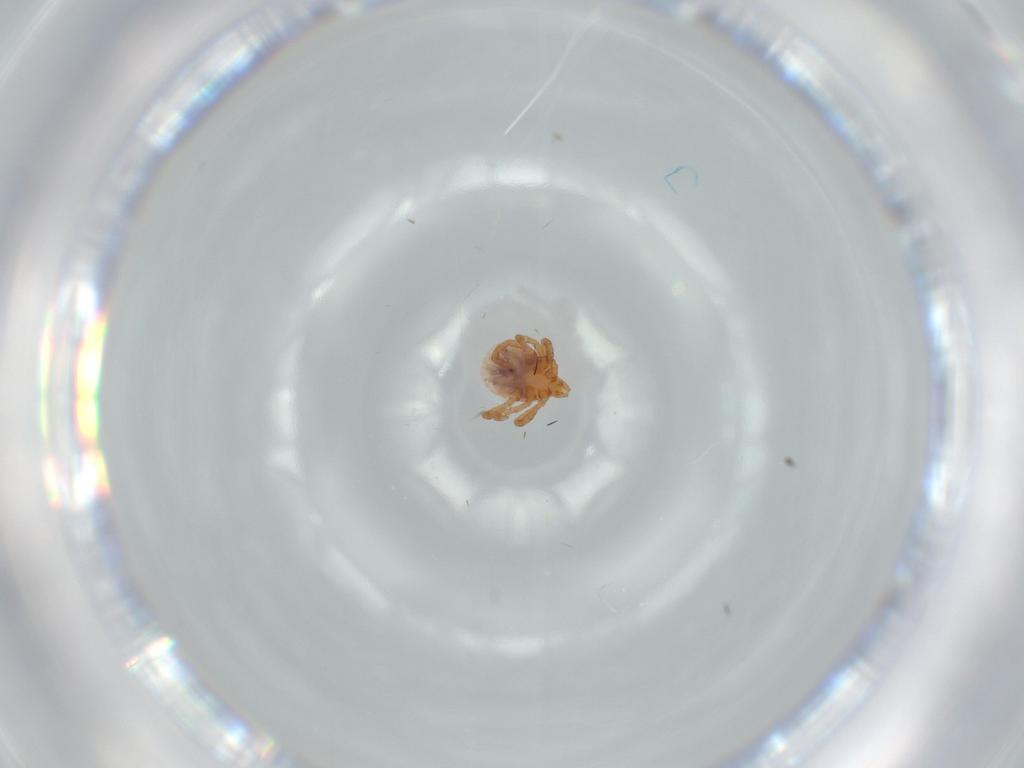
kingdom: Animalia
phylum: Arthropoda
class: Arachnida
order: Ixodida
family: Ixodidae
